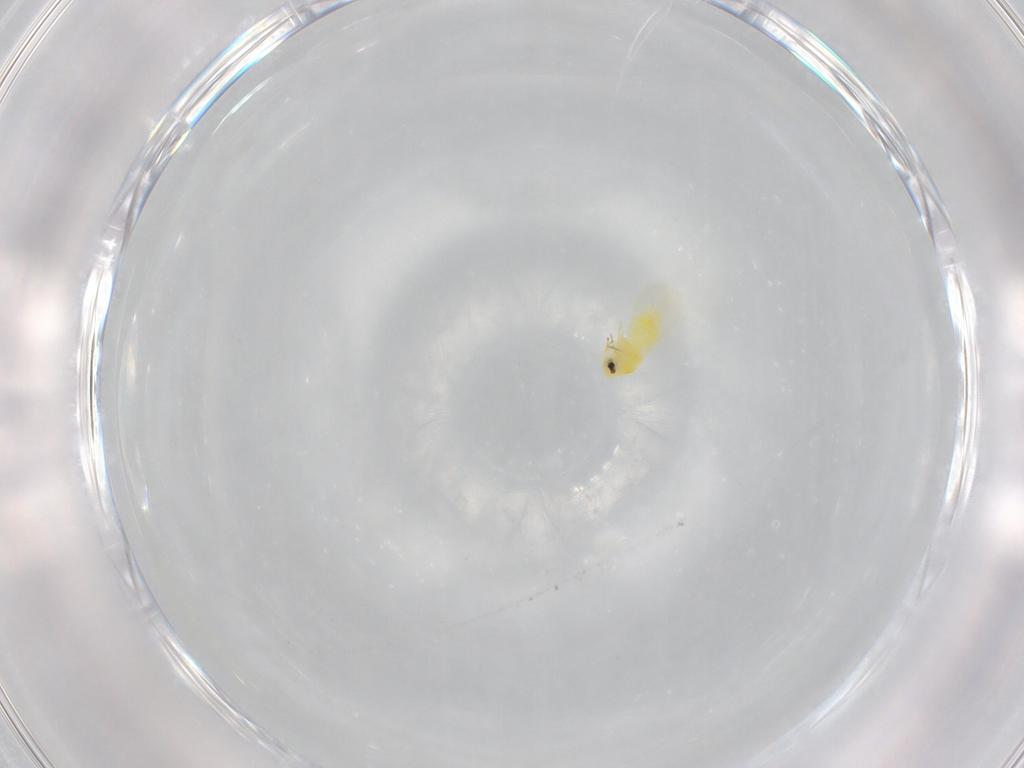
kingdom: Animalia
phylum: Arthropoda
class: Insecta
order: Hemiptera
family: Aleyrodidae
